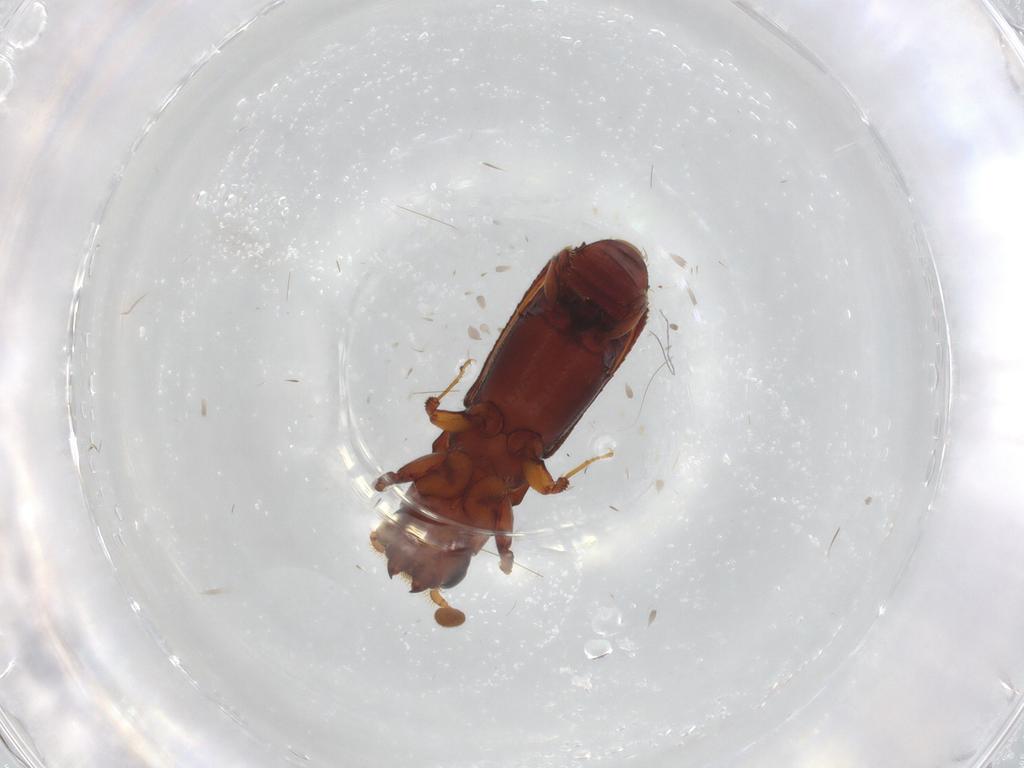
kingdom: Animalia
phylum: Arthropoda
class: Insecta
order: Coleoptera
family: Curculionidae
